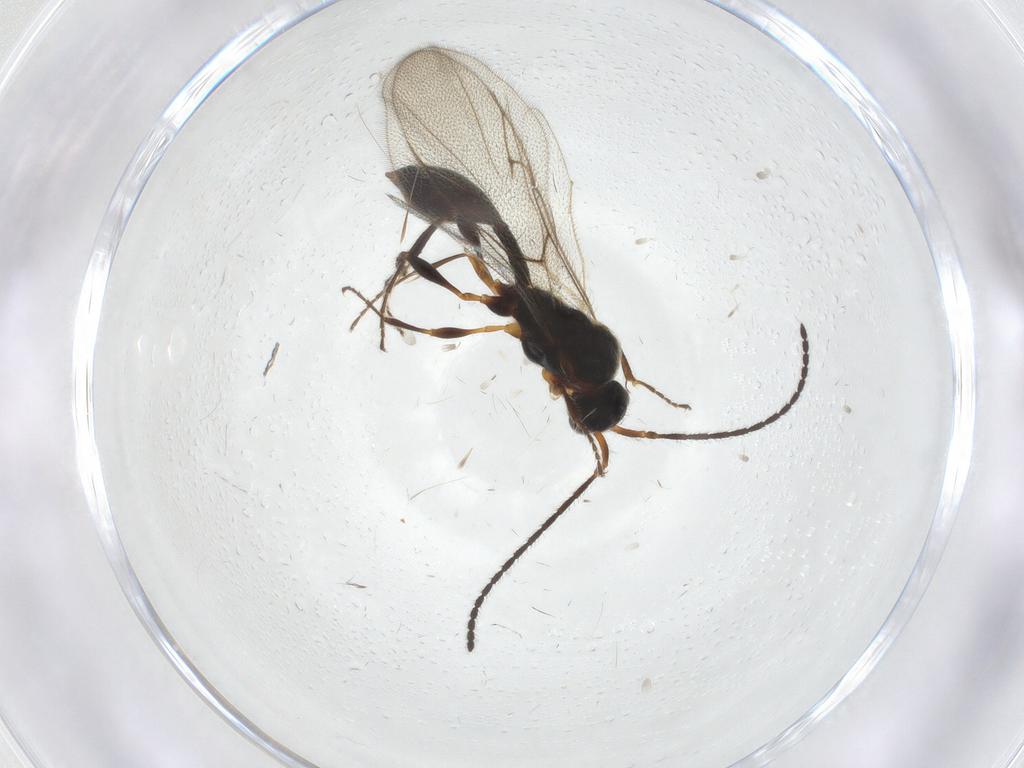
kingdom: Animalia
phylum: Arthropoda
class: Insecta
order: Hymenoptera
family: Diapriidae
